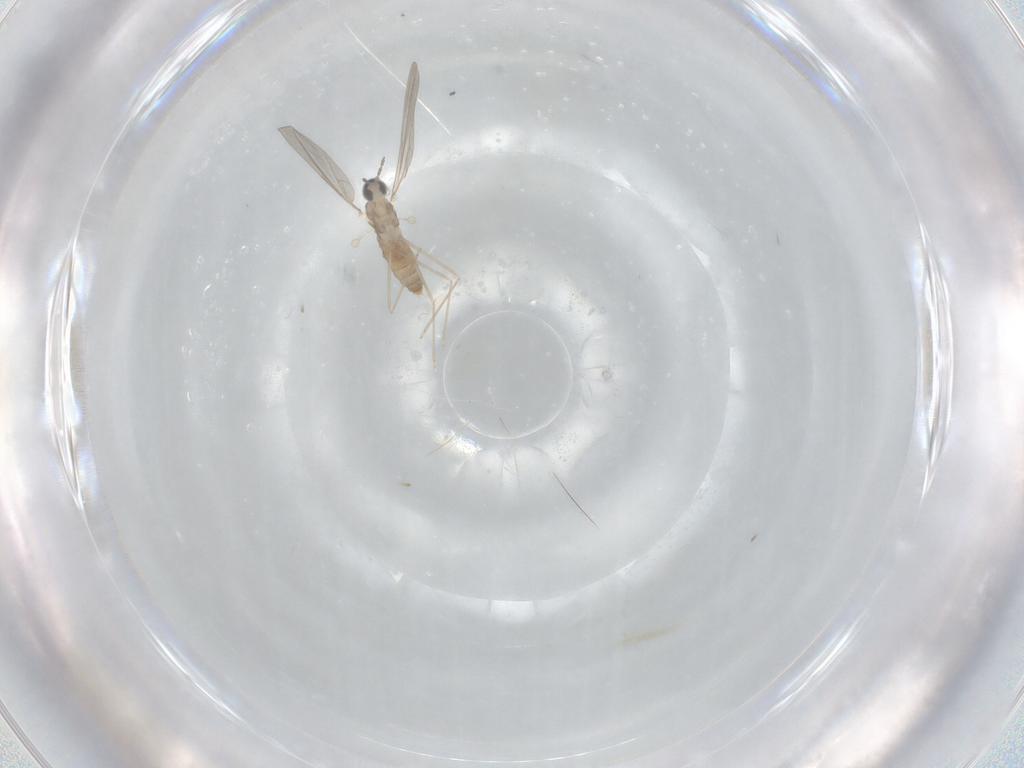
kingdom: Animalia
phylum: Arthropoda
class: Insecta
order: Diptera
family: Cecidomyiidae
